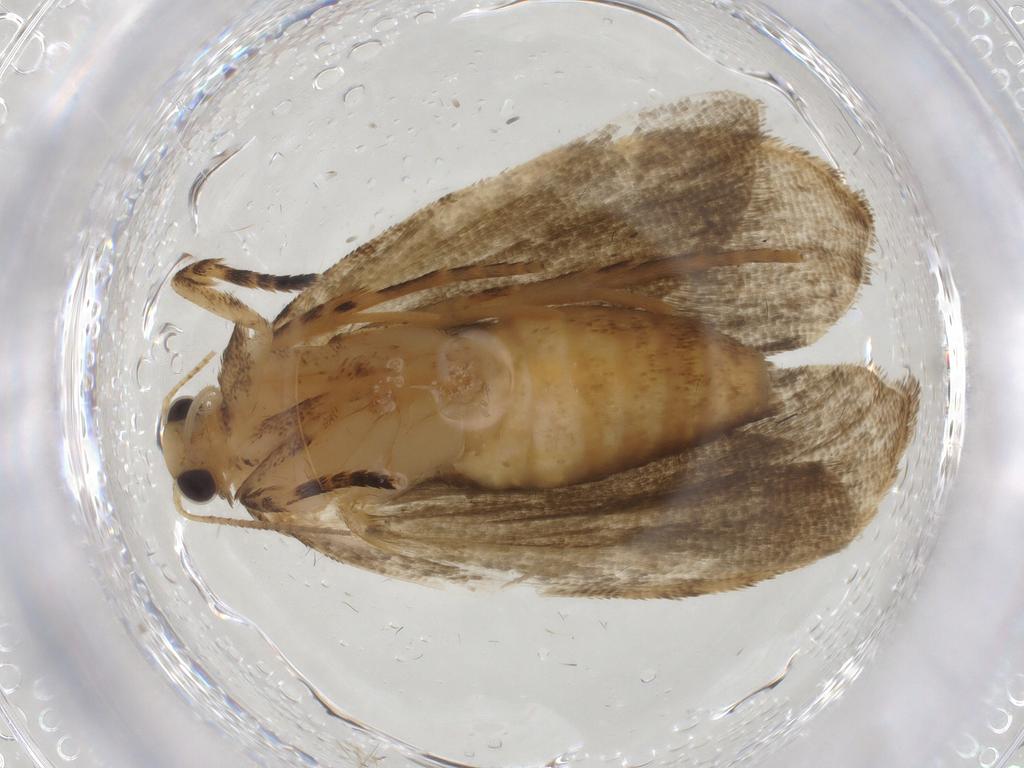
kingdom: Animalia
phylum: Arthropoda
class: Insecta
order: Lepidoptera
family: Notodontidae
